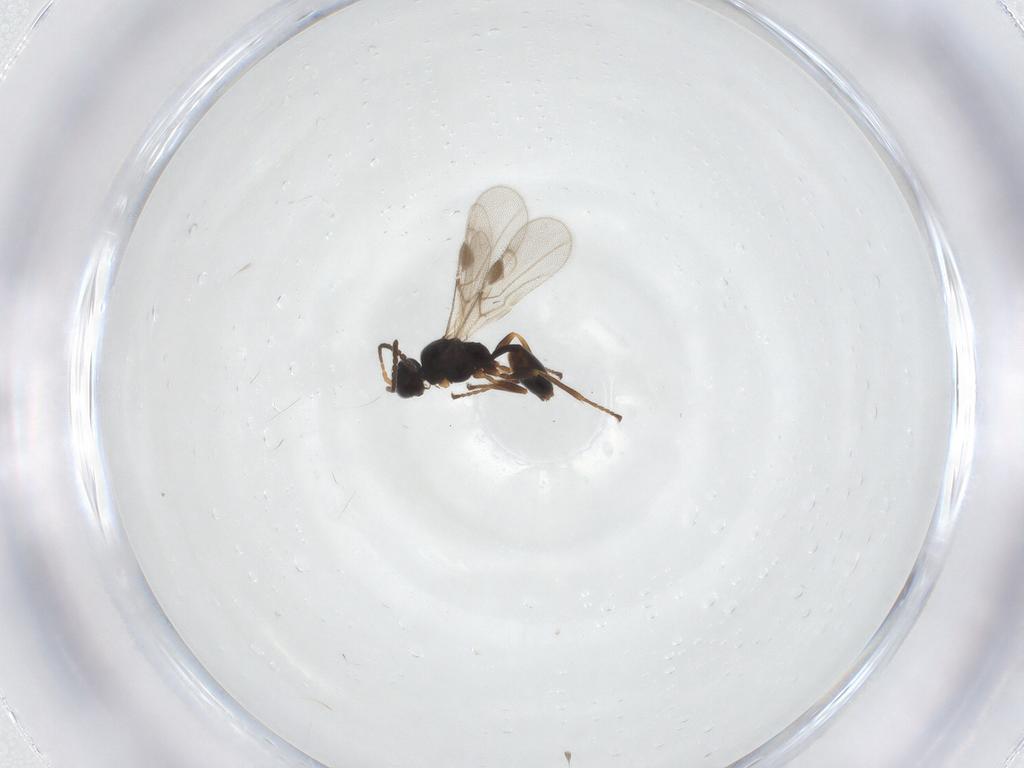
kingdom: Animalia
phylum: Arthropoda
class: Insecta
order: Hymenoptera
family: Braconidae
